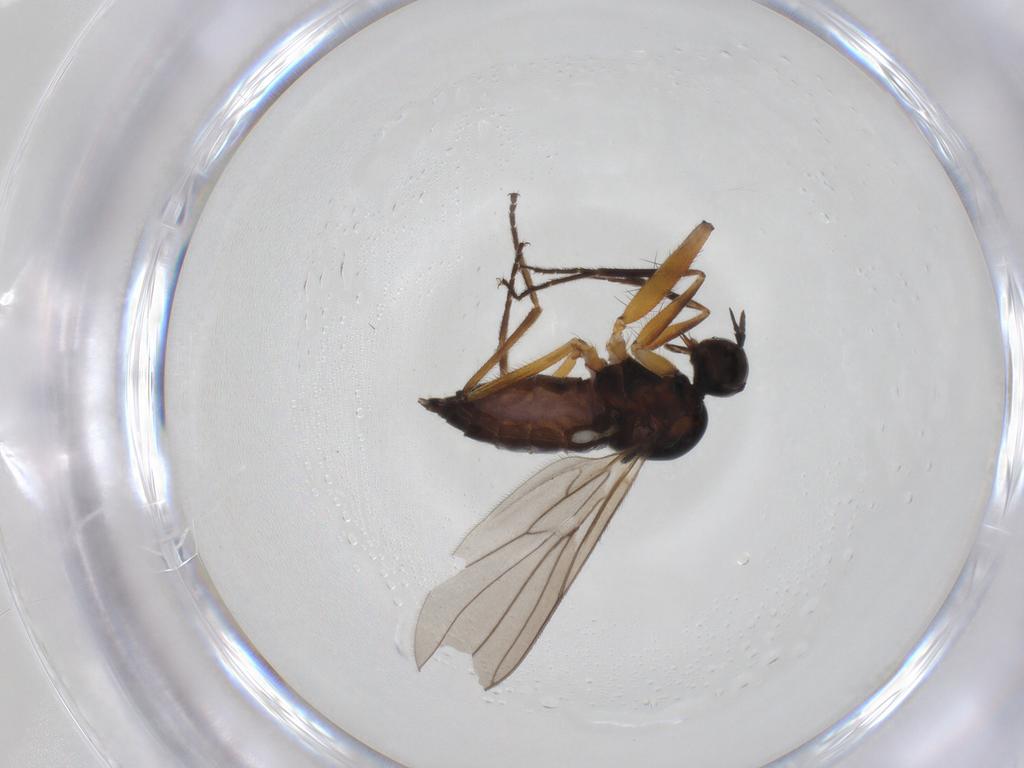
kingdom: Animalia
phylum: Arthropoda
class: Insecta
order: Diptera
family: Hybotidae
